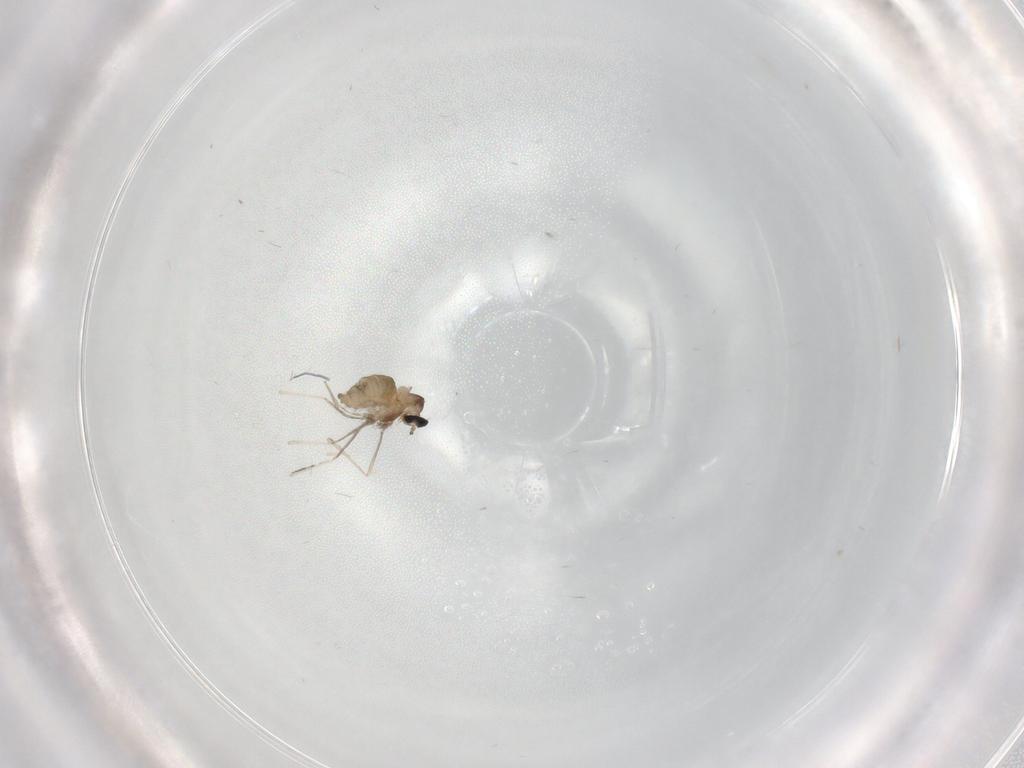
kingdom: Animalia
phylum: Arthropoda
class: Insecta
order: Diptera
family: Cecidomyiidae
